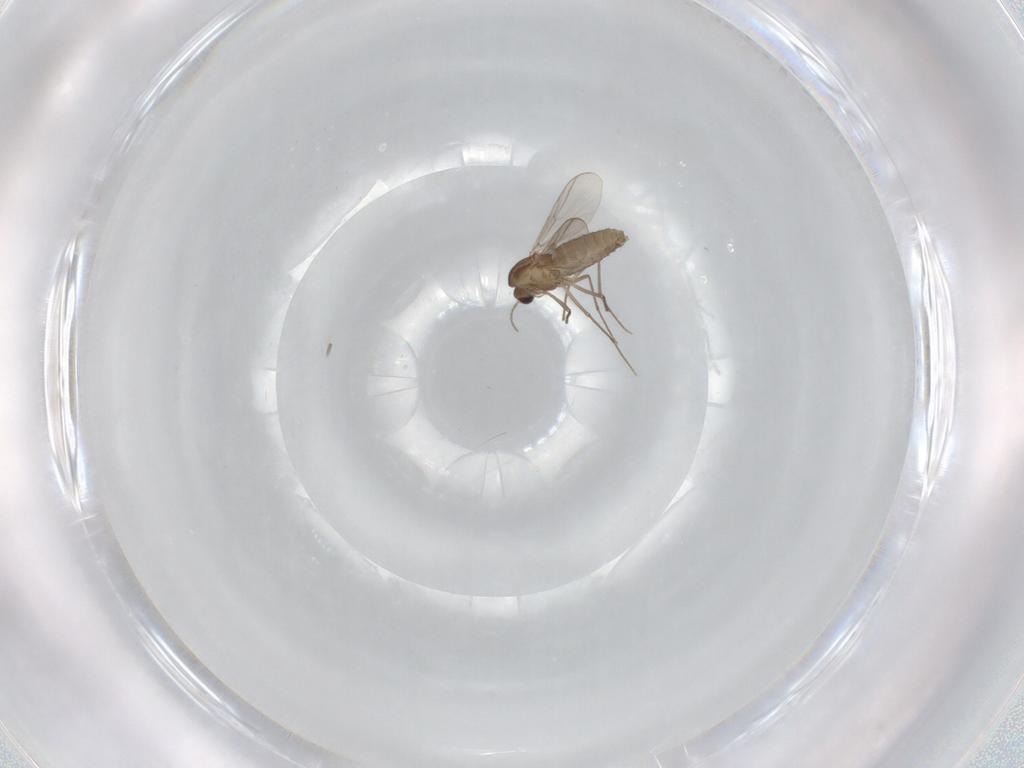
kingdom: Animalia
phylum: Arthropoda
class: Insecta
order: Diptera
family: Chironomidae
